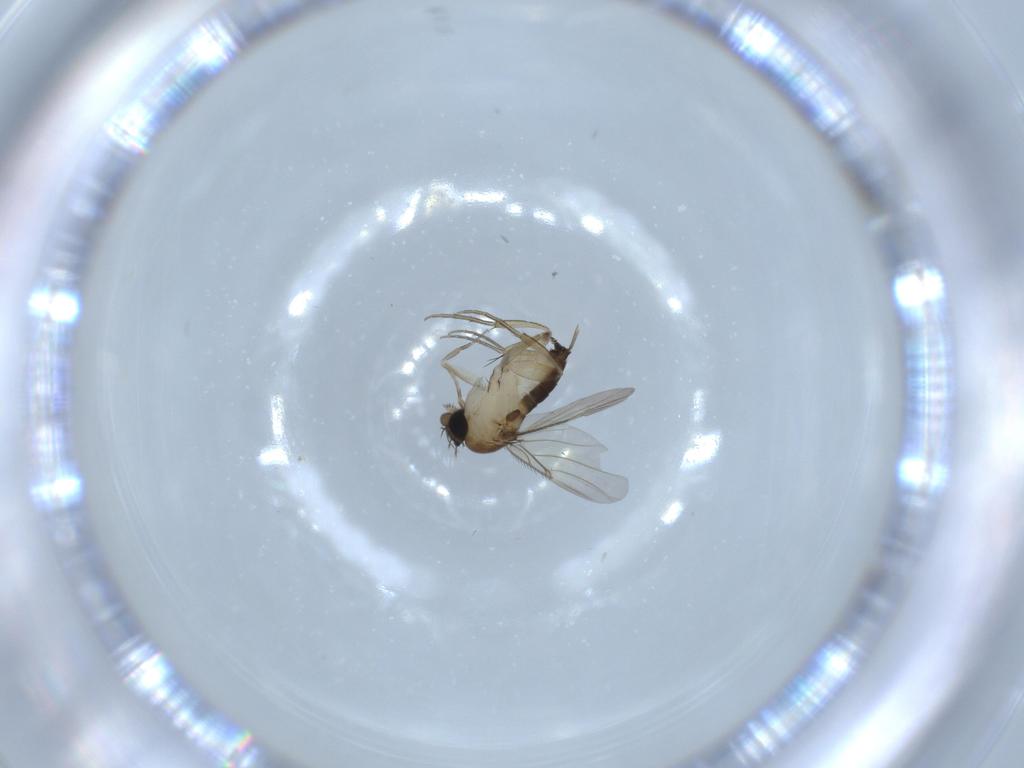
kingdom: Animalia
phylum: Arthropoda
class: Insecta
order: Diptera
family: Phoridae
